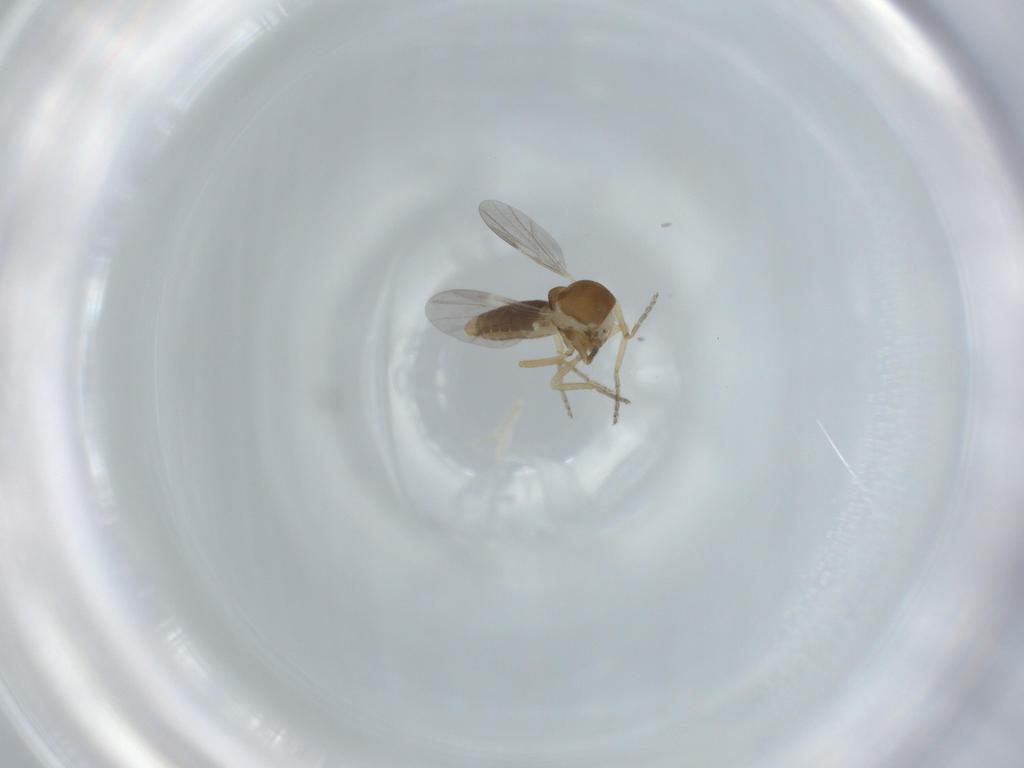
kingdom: Animalia
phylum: Arthropoda
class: Insecta
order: Diptera
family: Ceratopogonidae
